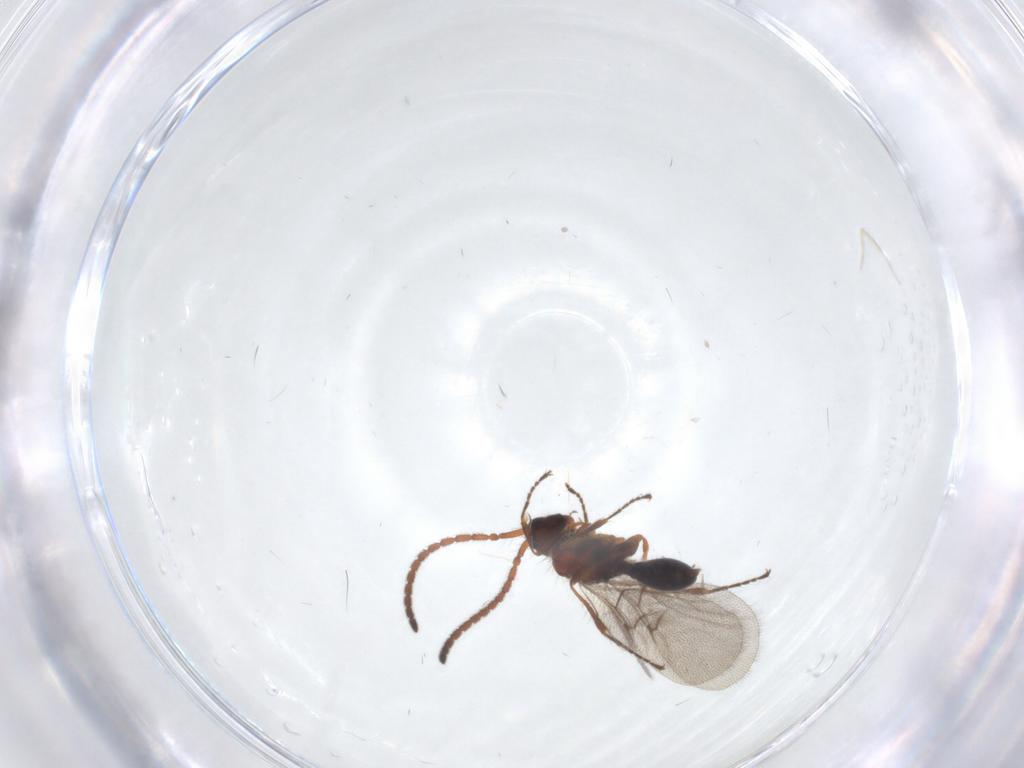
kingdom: Animalia
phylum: Arthropoda
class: Insecta
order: Hymenoptera
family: Diapriidae
